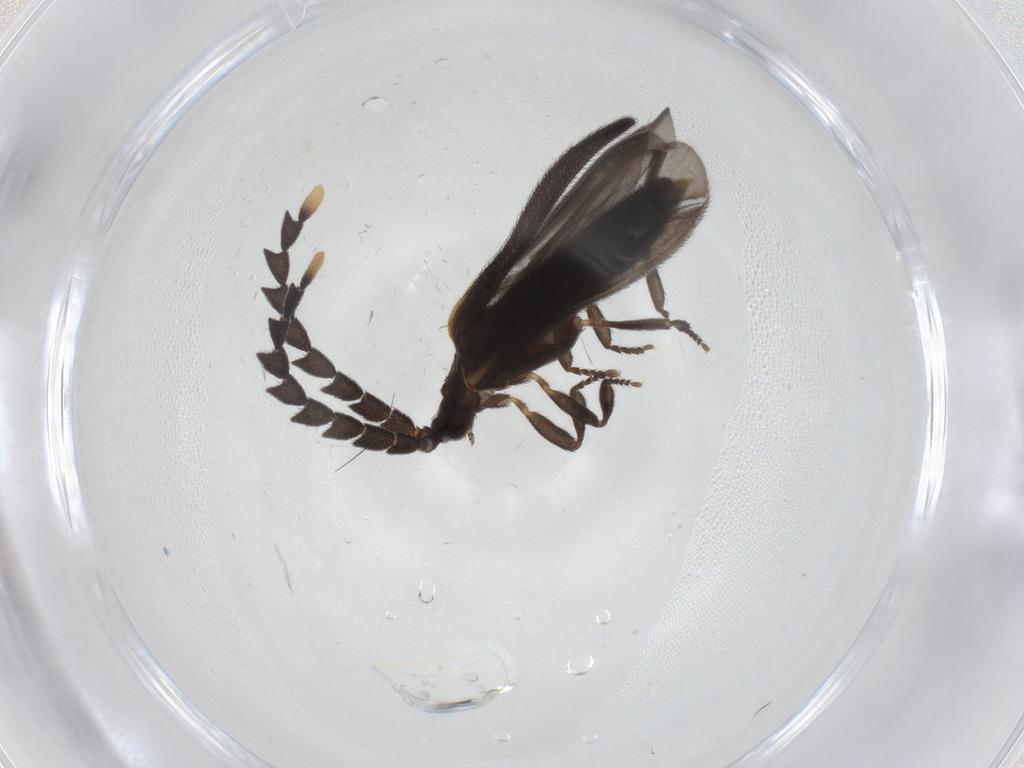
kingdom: Animalia
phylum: Arthropoda
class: Insecta
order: Coleoptera
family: Lycidae
